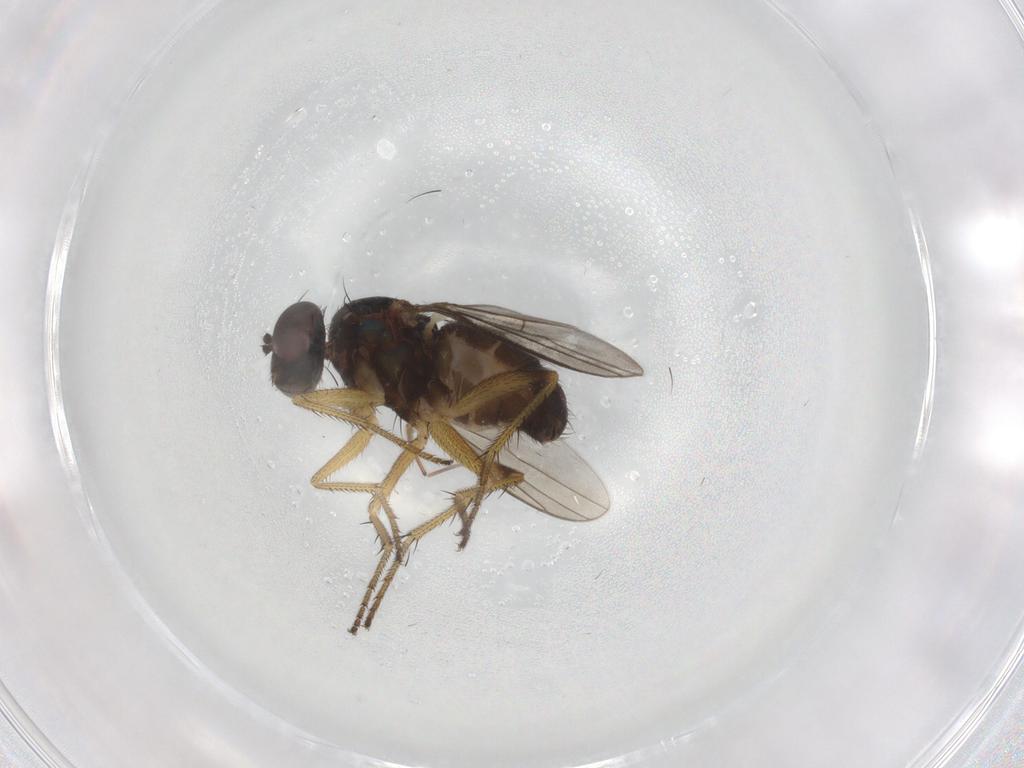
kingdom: Animalia
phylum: Arthropoda
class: Insecta
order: Diptera
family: Dolichopodidae
